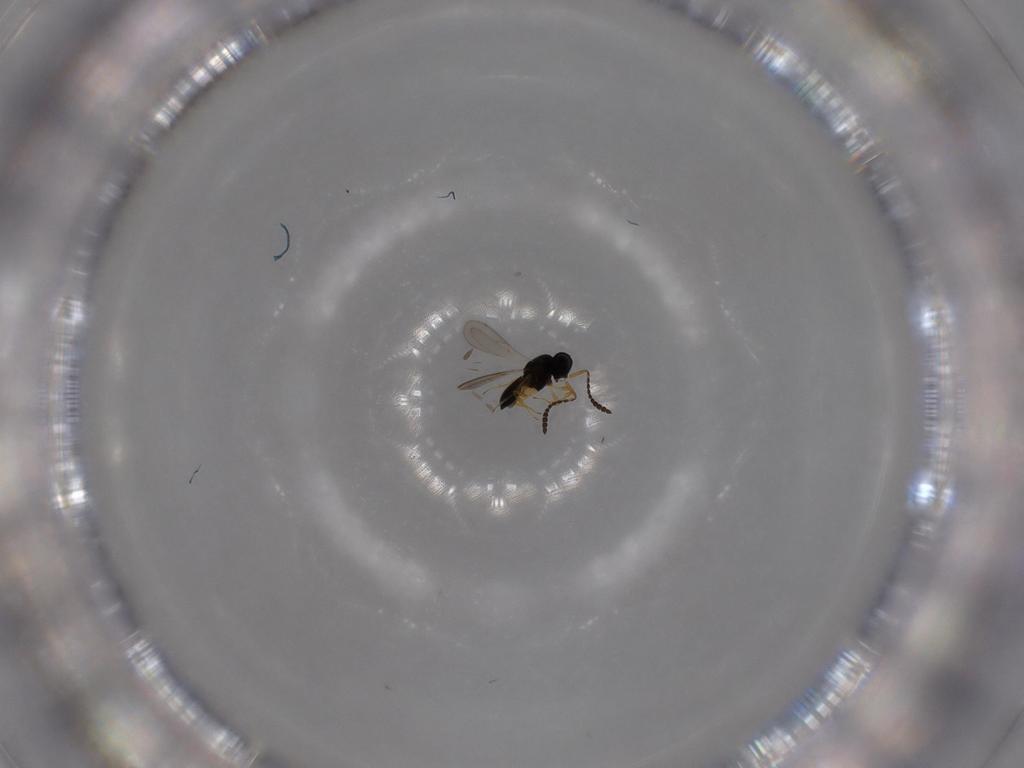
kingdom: Animalia
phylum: Arthropoda
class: Insecta
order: Hymenoptera
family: Scelionidae
